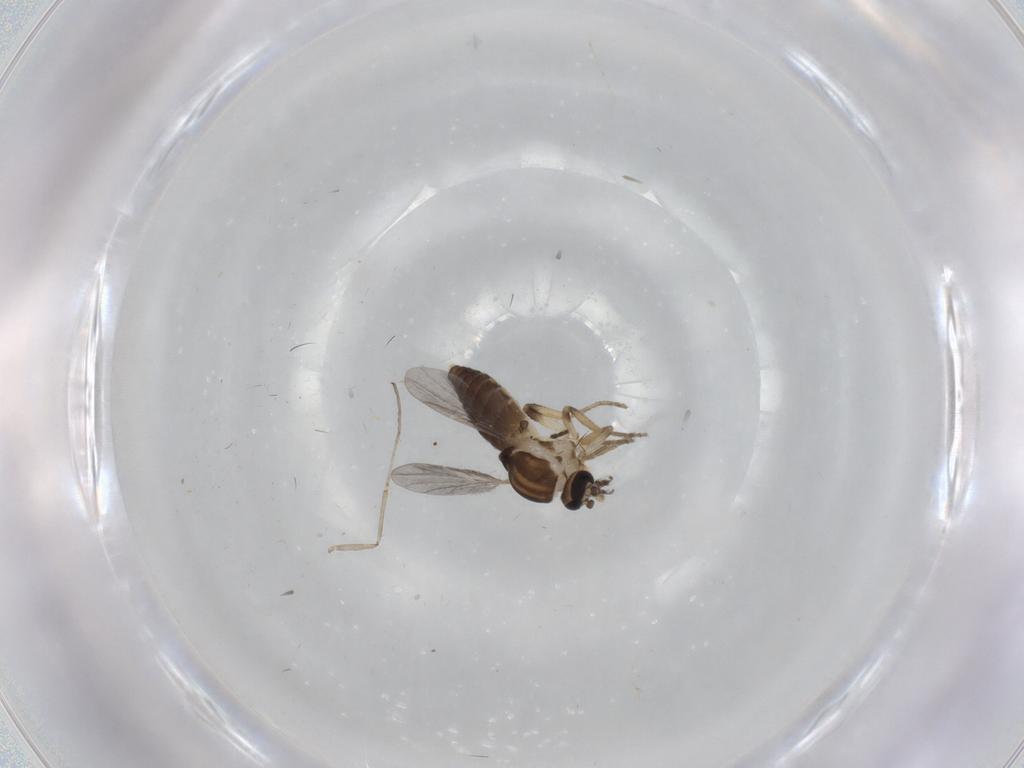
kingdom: Animalia
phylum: Arthropoda
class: Insecta
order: Diptera
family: Ceratopogonidae
